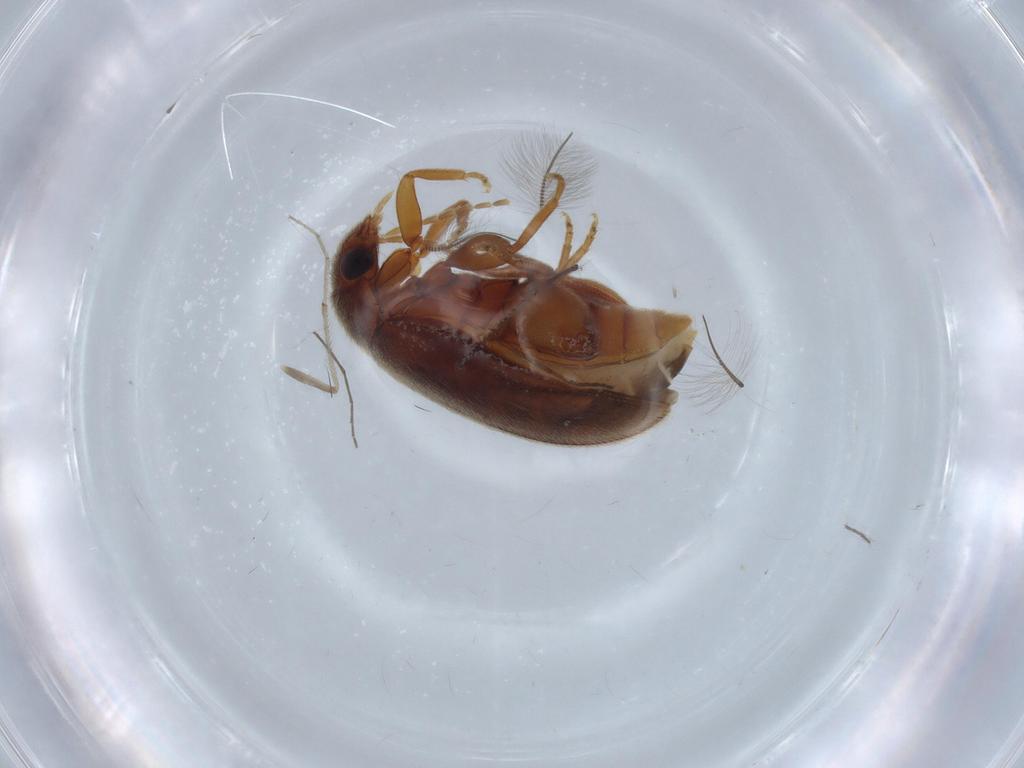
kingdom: Animalia
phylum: Arthropoda
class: Insecta
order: Coleoptera
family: Scirtidae
